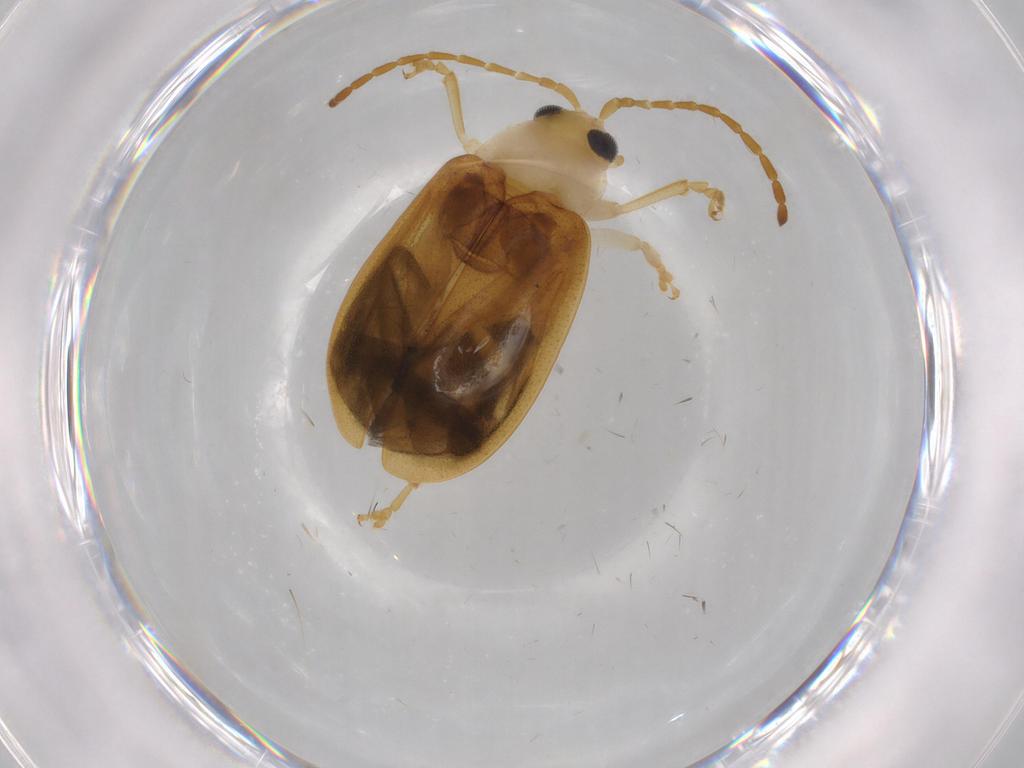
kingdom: Animalia
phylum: Arthropoda
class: Insecta
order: Coleoptera
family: Chrysomelidae
